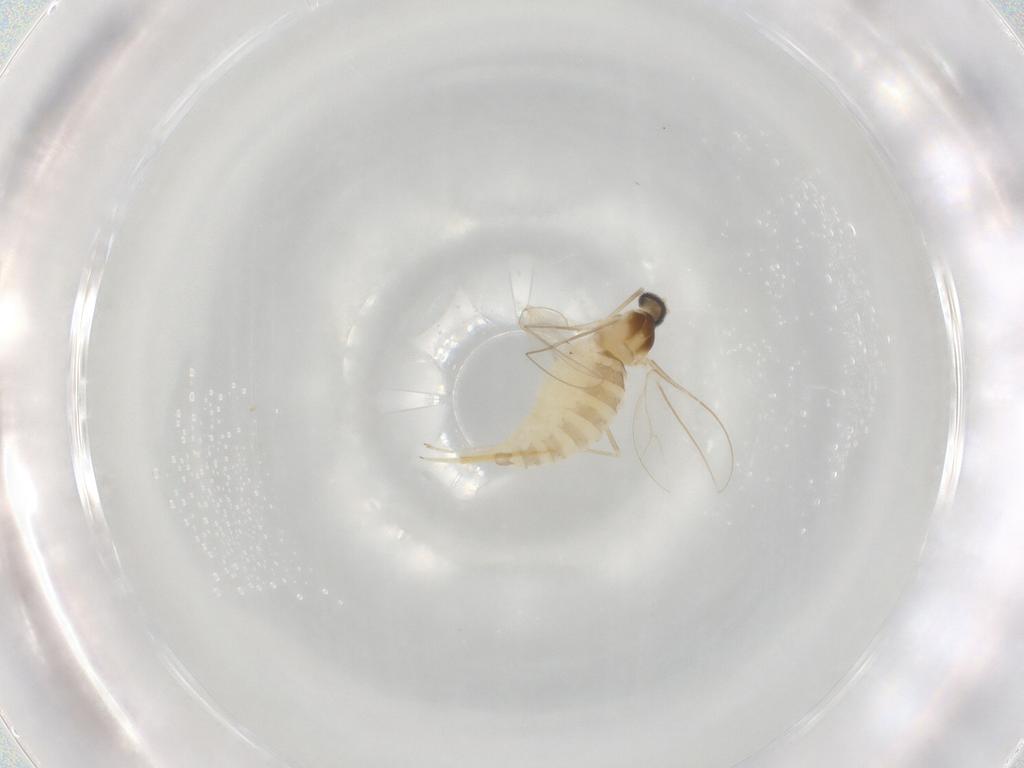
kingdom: Animalia
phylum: Arthropoda
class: Insecta
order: Diptera
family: Cecidomyiidae
